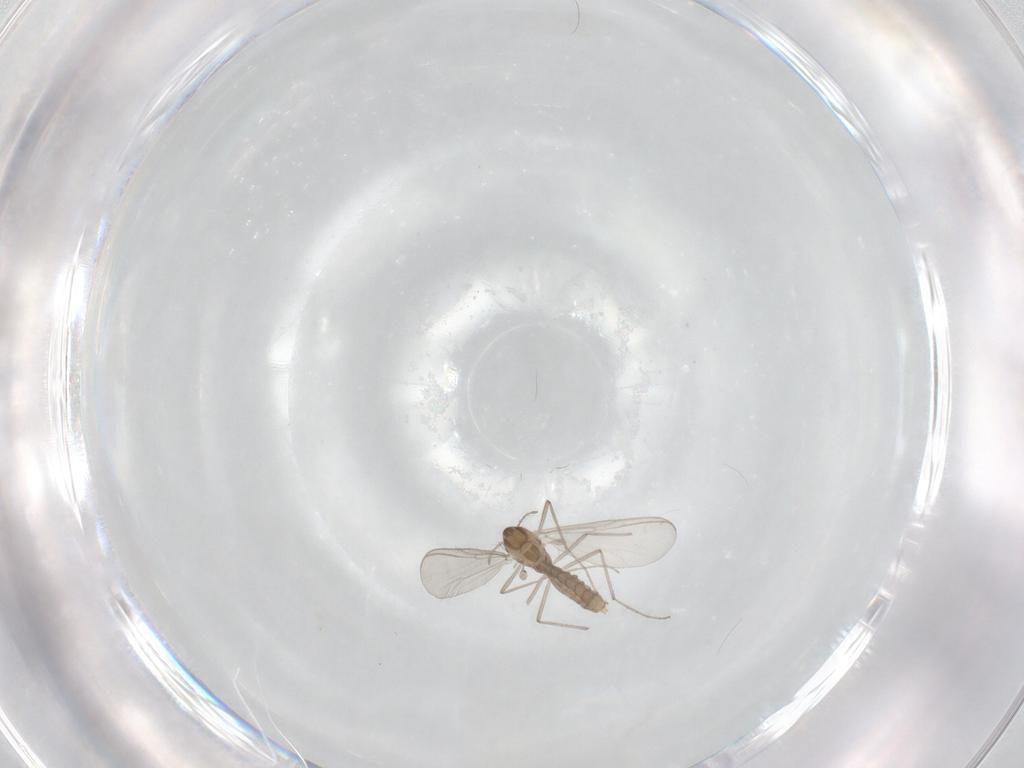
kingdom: Animalia
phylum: Arthropoda
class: Insecta
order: Diptera
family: Chironomidae
